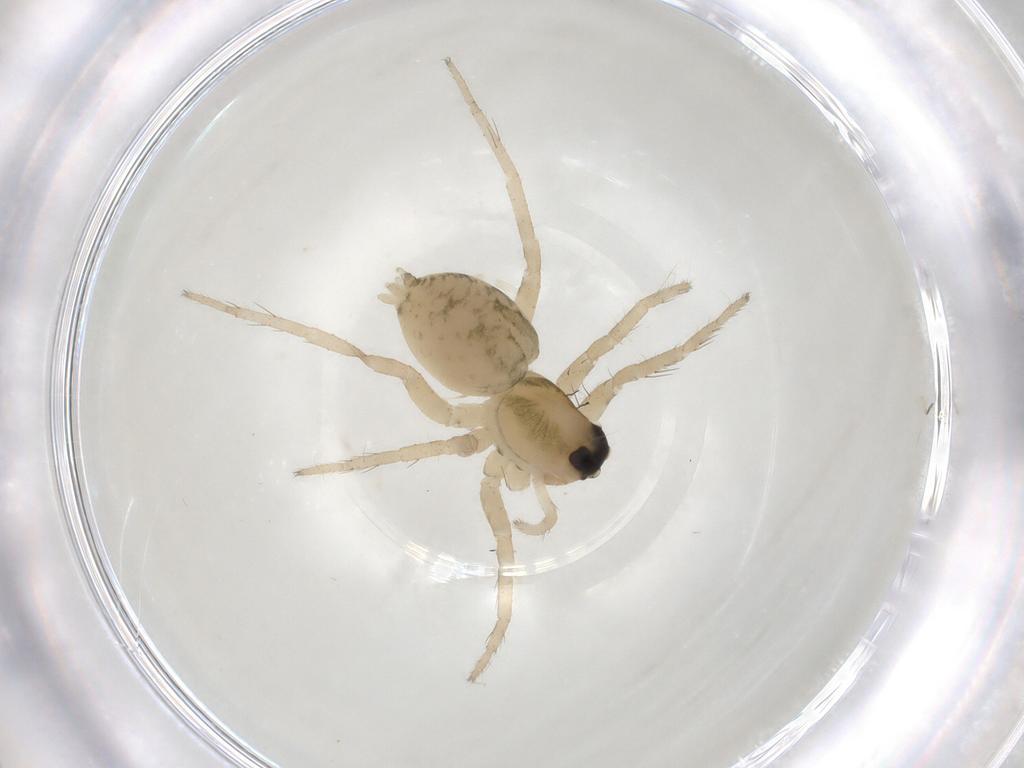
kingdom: Animalia
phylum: Arthropoda
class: Arachnida
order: Araneae
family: Lycosidae
